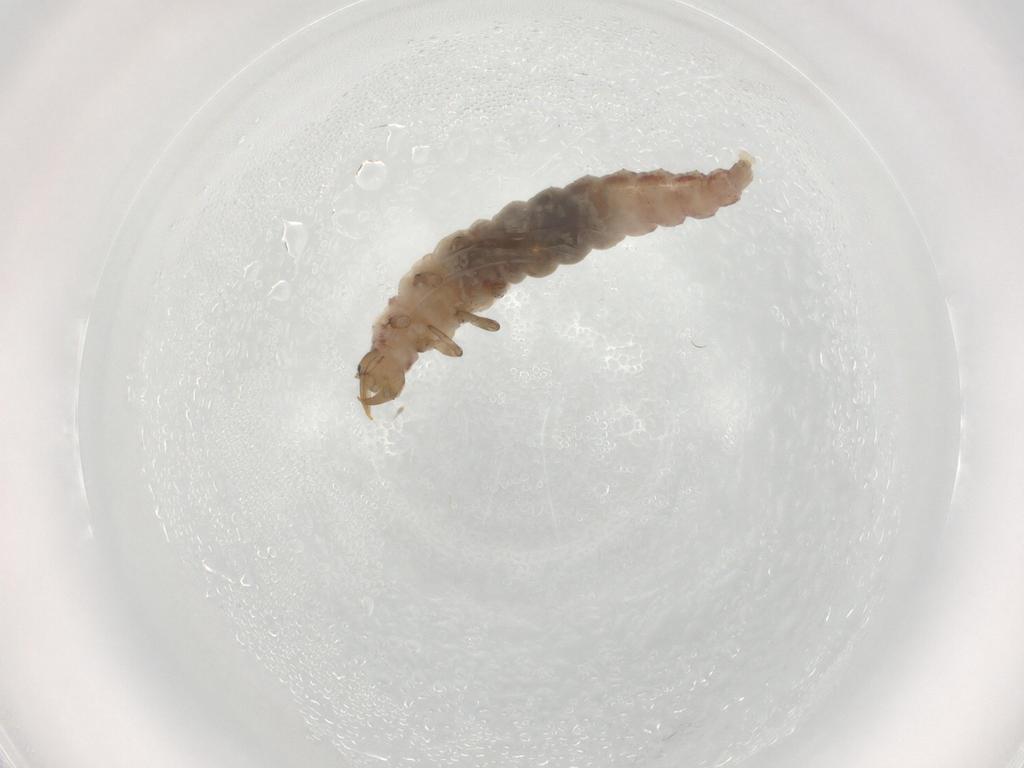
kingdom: Animalia
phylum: Arthropoda
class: Insecta
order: Neuroptera
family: Hemerobiidae
